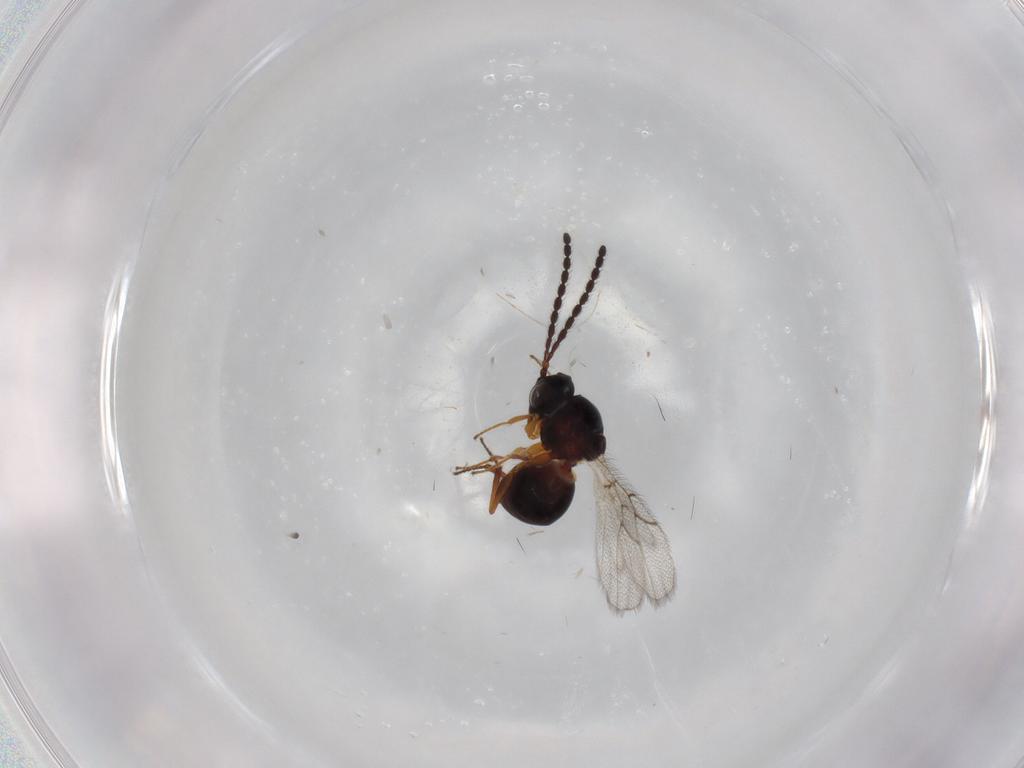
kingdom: Animalia
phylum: Arthropoda
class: Insecta
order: Hymenoptera
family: Figitidae
